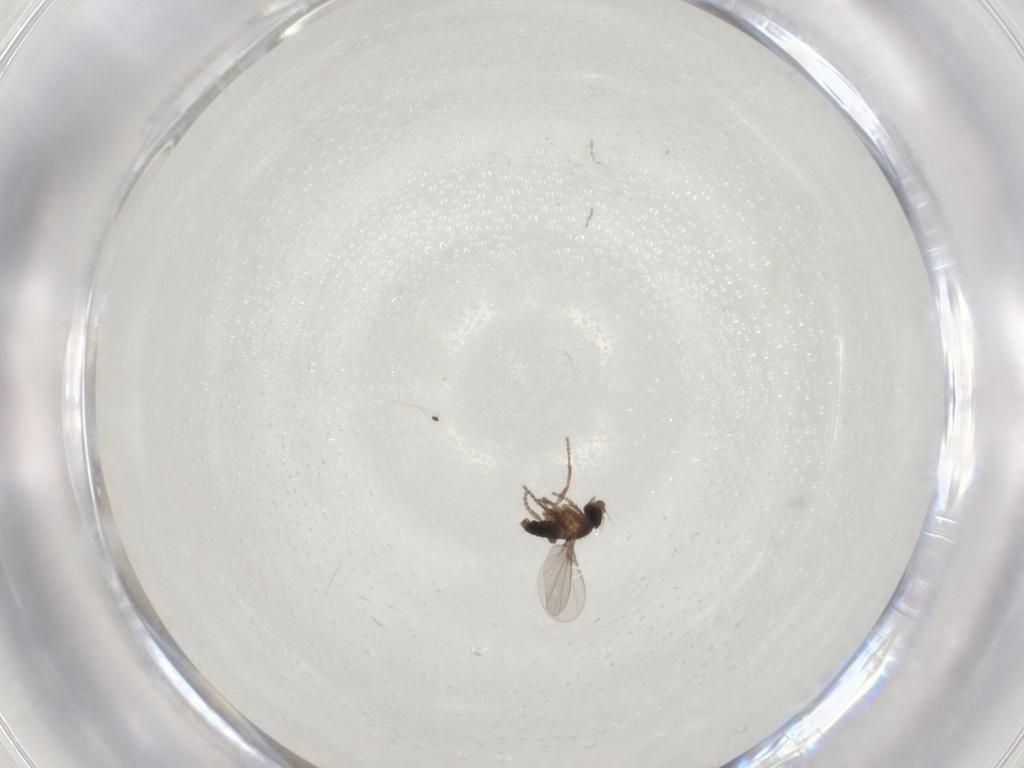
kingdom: Animalia
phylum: Arthropoda
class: Insecta
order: Diptera
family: Phoridae
